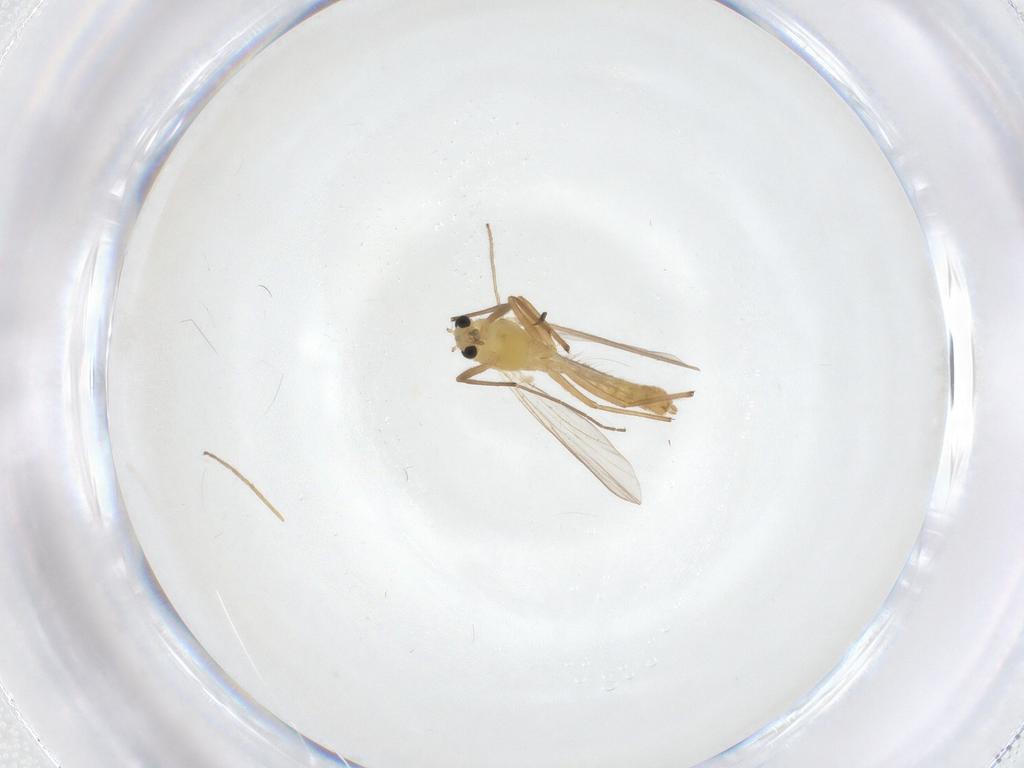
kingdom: Animalia
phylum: Arthropoda
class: Insecta
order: Diptera
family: Chironomidae
